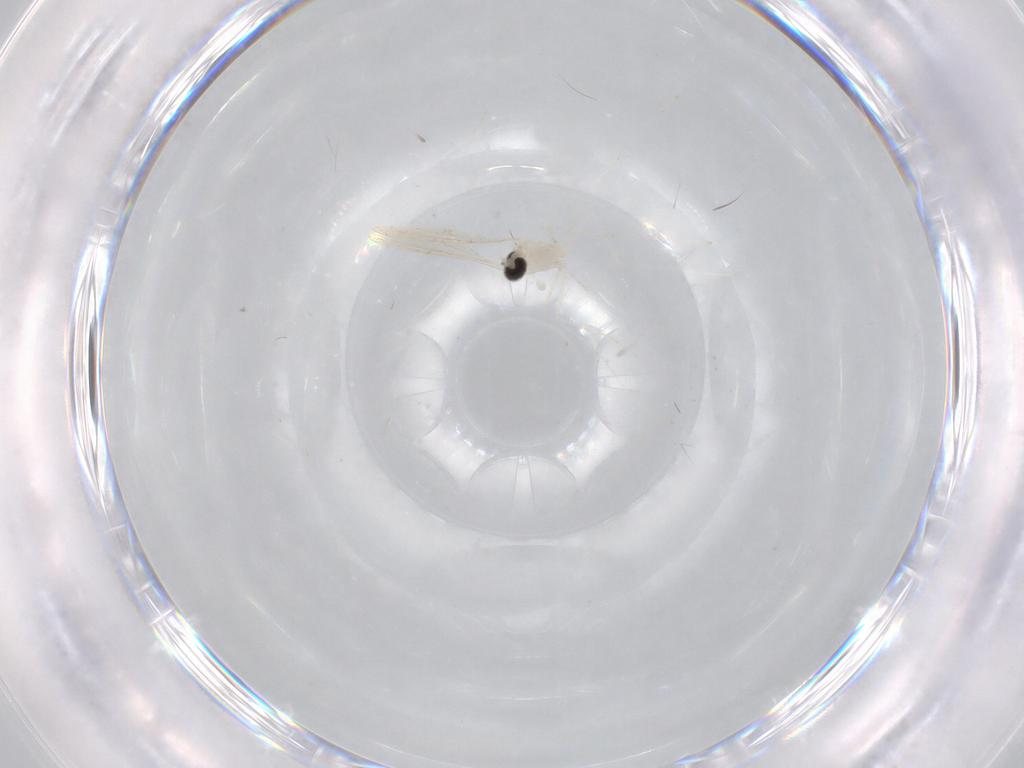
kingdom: Animalia
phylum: Arthropoda
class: Insecta
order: Diptera
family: Cecidomyiidae
